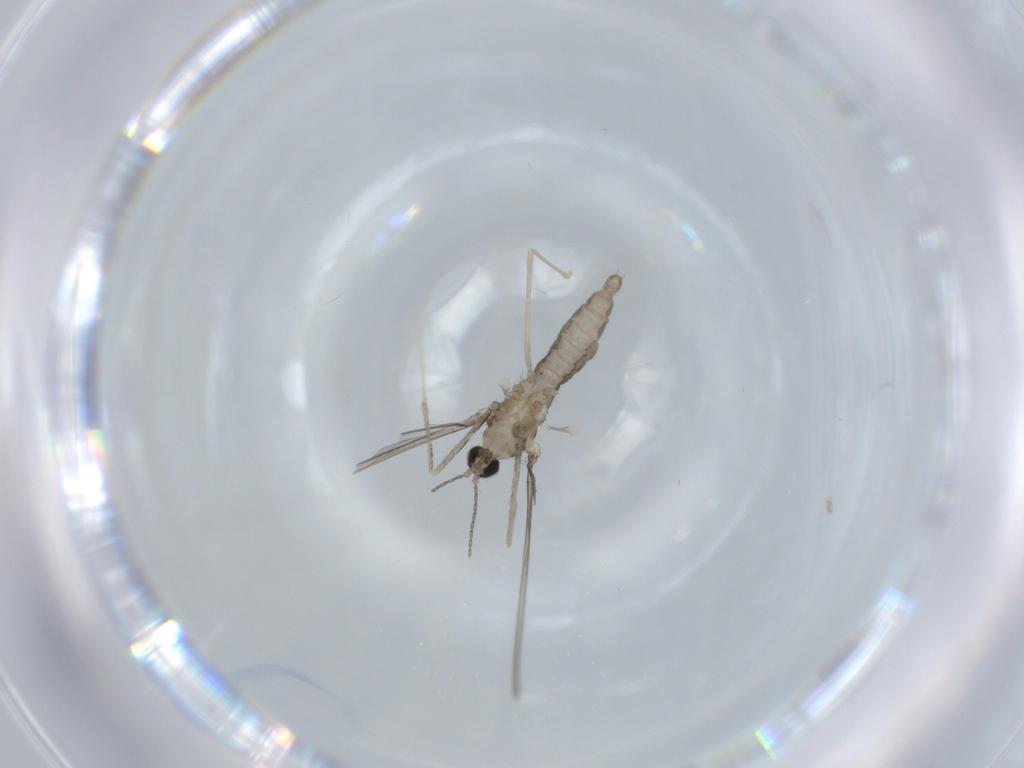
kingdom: Animalia
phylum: Arthropoda
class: Insecta
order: Diptera
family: Cecidomyiidae
